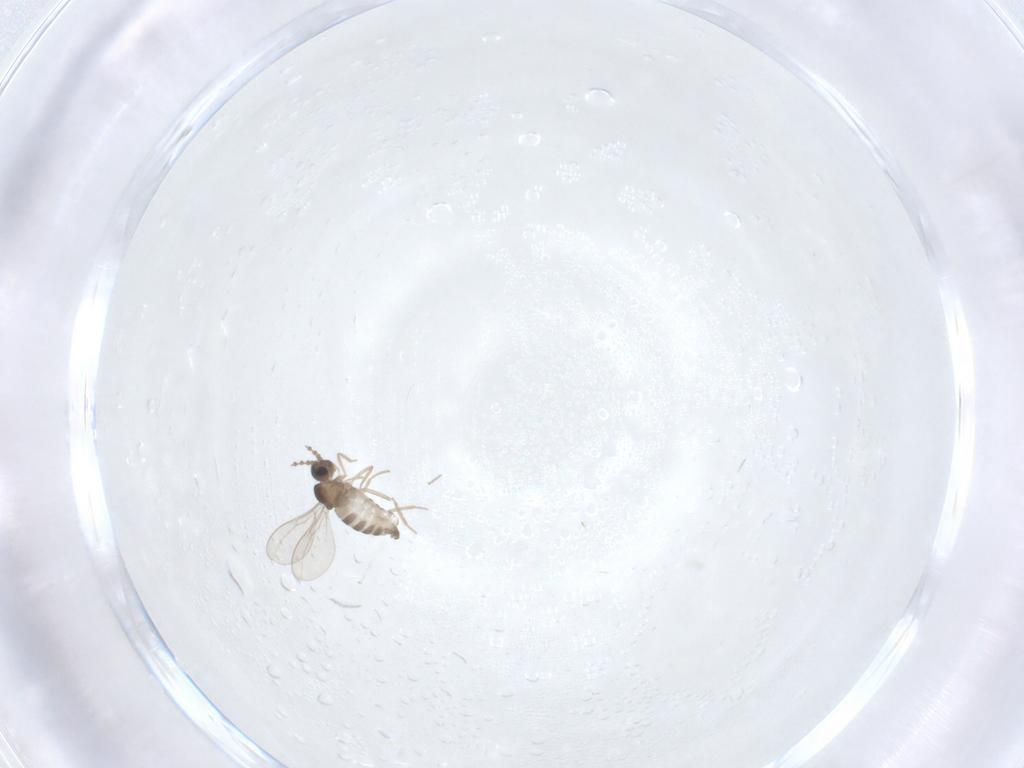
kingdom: Animalia
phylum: Arthropoda
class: Insecta
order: Diptera
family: Cecidomyiidae
